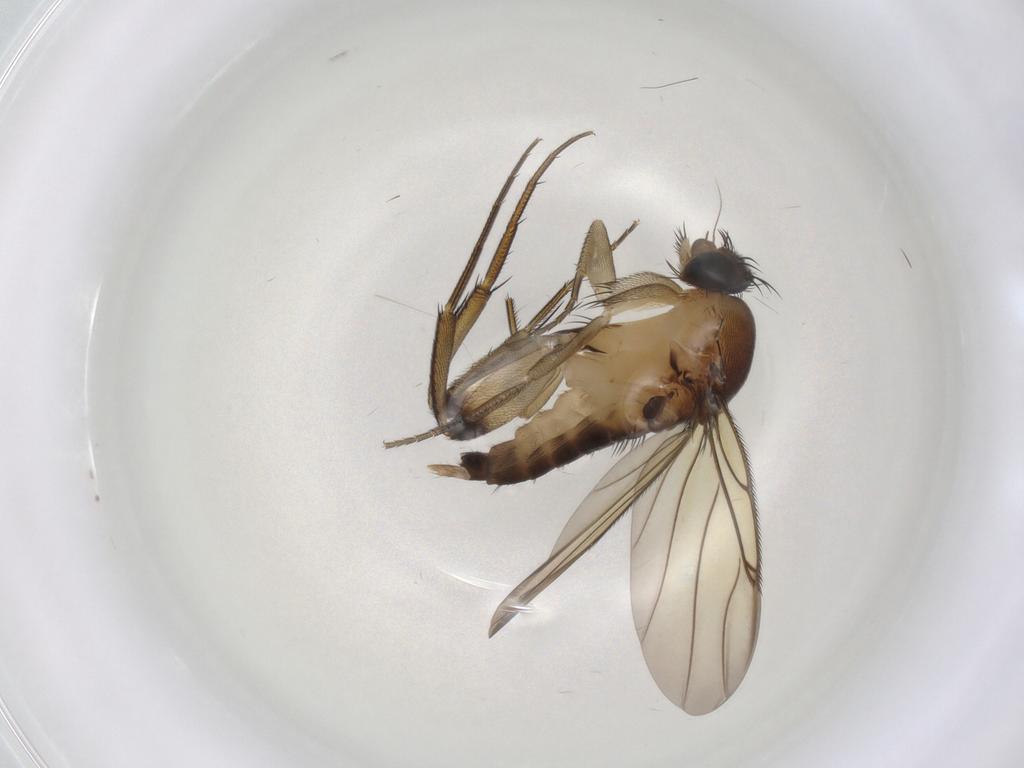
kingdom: Animalia
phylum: Arthropoda
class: Insecta
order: Diptera
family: Phoridae
